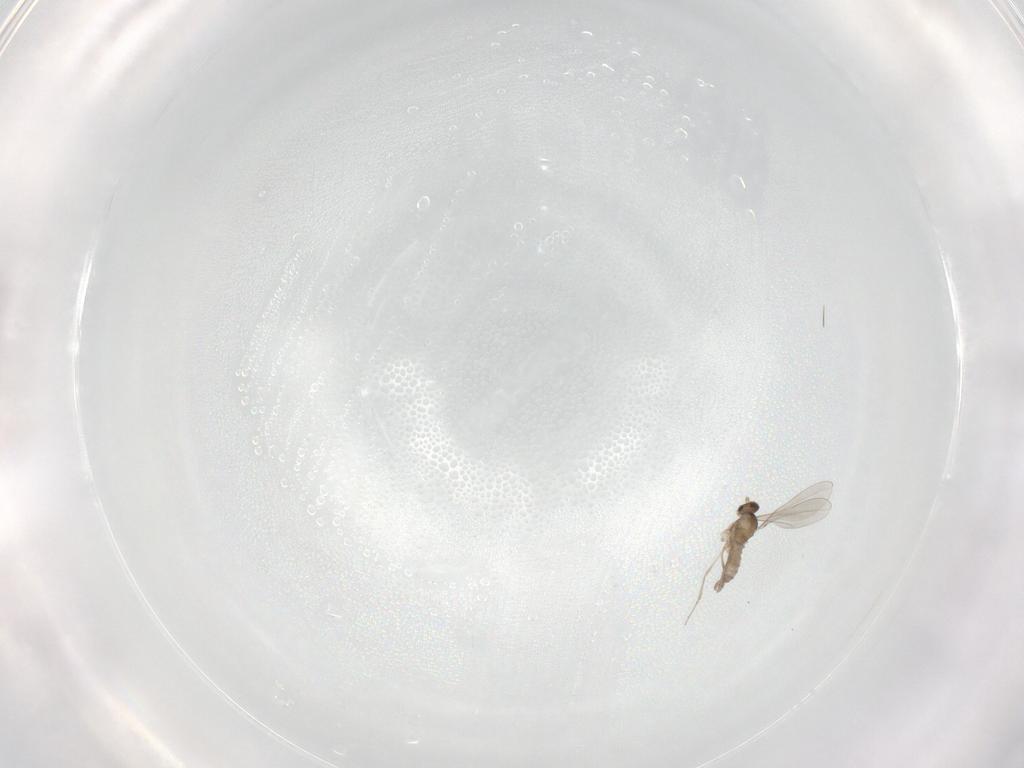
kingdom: Animalia
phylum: Arthropoda
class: Insecta
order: Diptera
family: Cecidomyiidae
